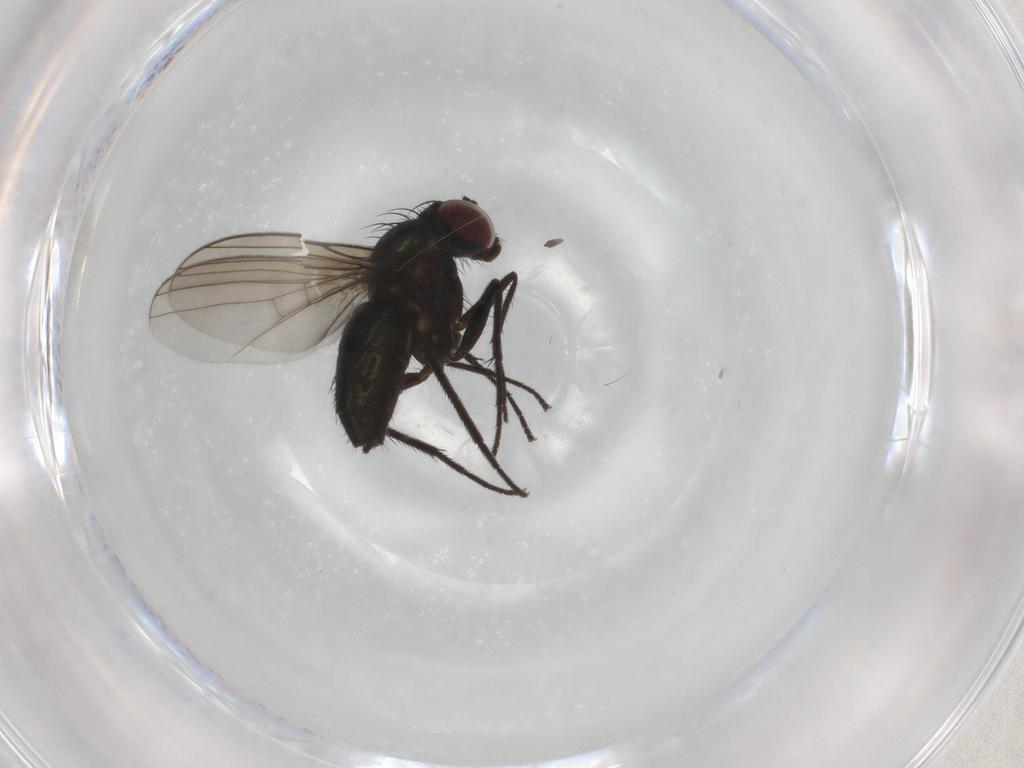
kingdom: Animalia
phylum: Arthropoda
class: Insecta
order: Diptera
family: Dolichopodidae
